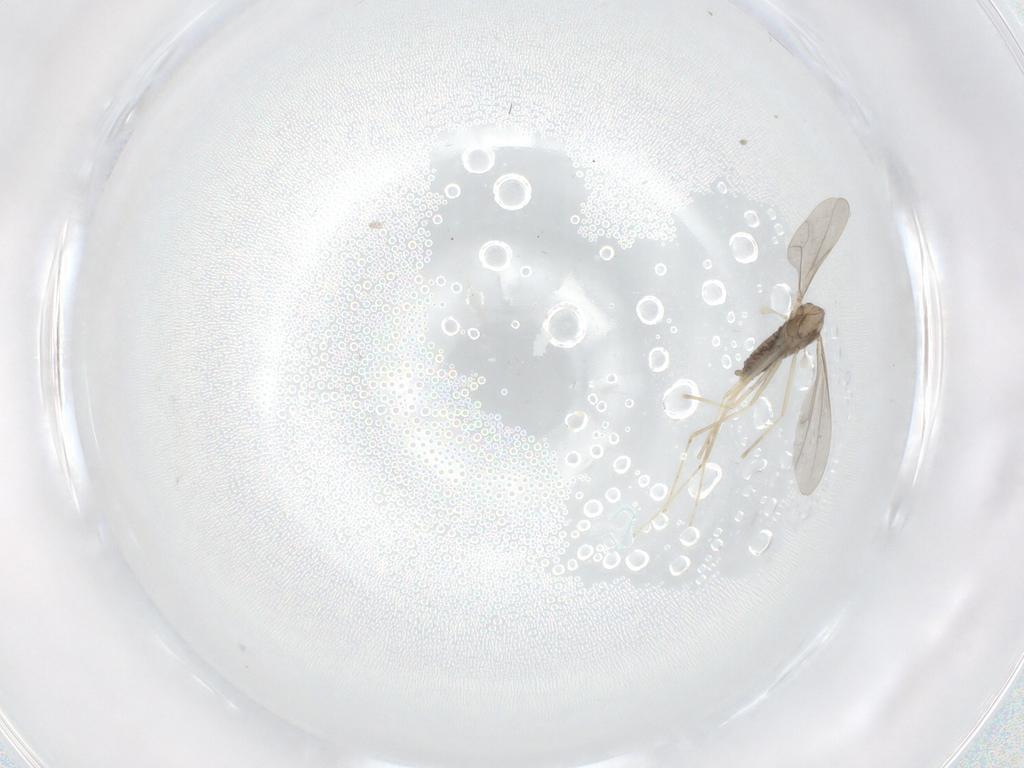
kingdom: Animalia
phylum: Arthropoda
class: Insecta
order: Diptera
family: Cecidomyiidae
